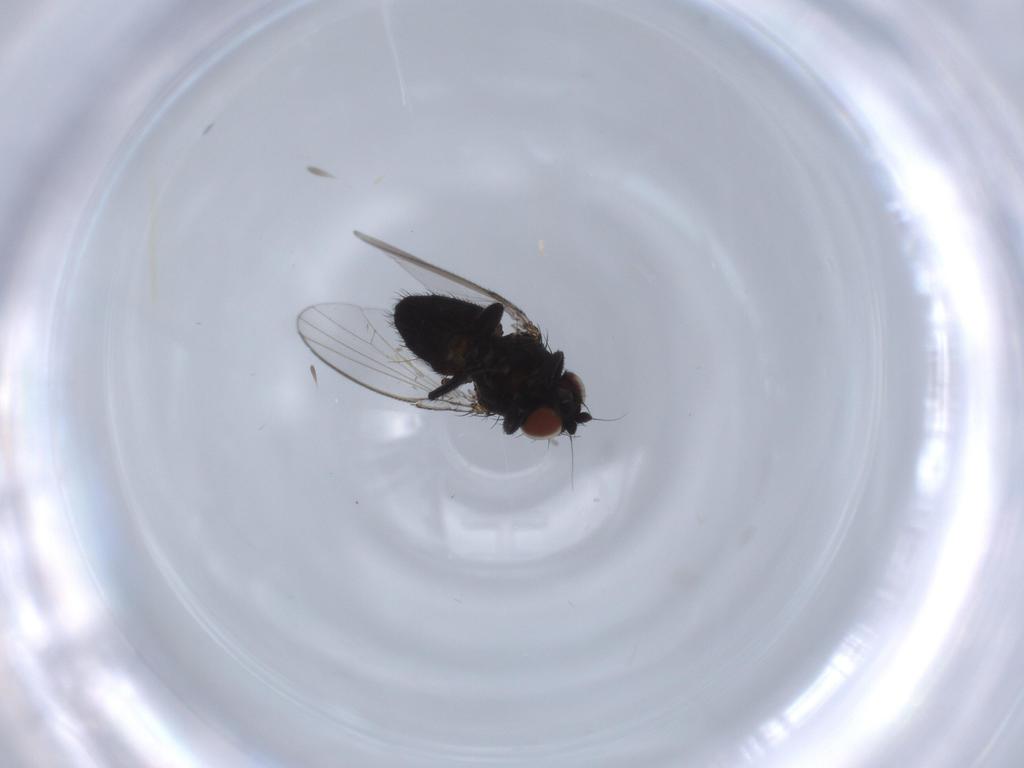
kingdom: Animalia
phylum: Arthropoda
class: Insecta
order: Diptera
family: Milichiidae
